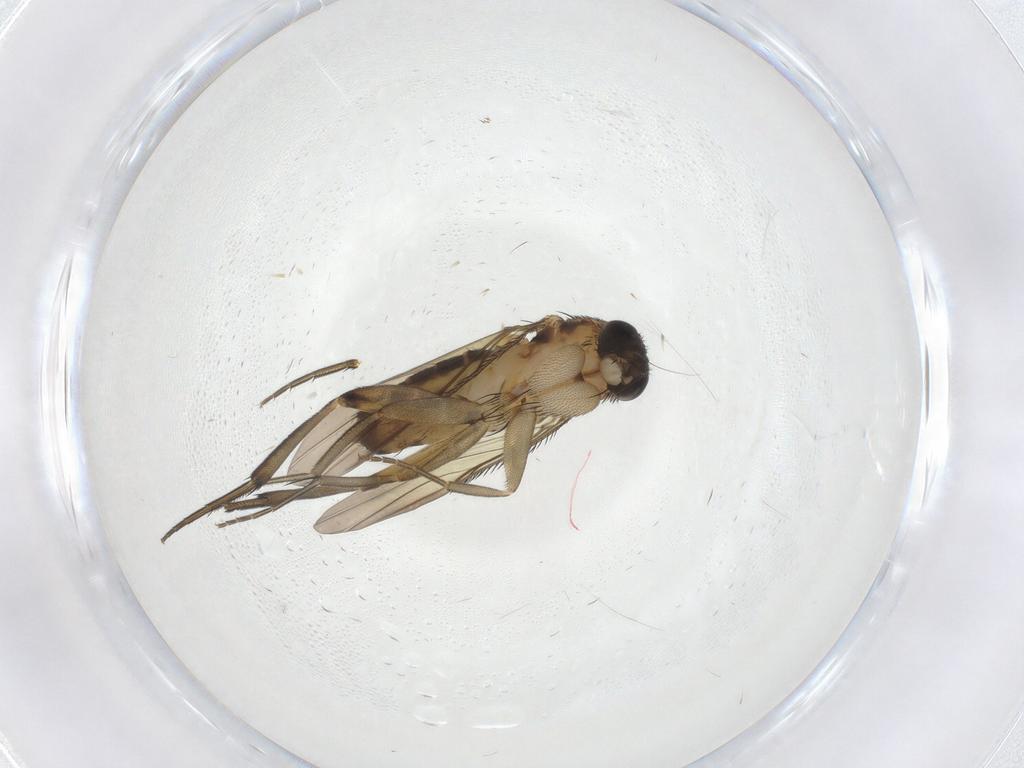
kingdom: Animalia
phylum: Arthropoda
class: Insecta
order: Diptera
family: Phoridae
